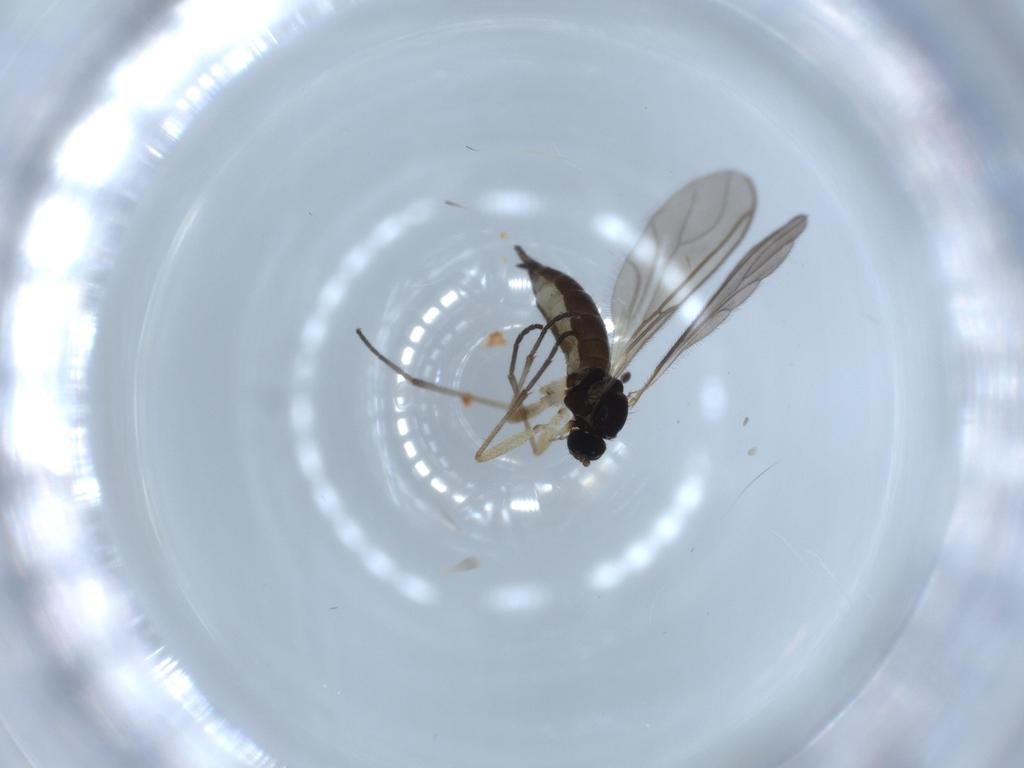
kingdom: Animalia
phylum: Arthropoda
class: Insecta
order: Diptera
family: Sciaridae
